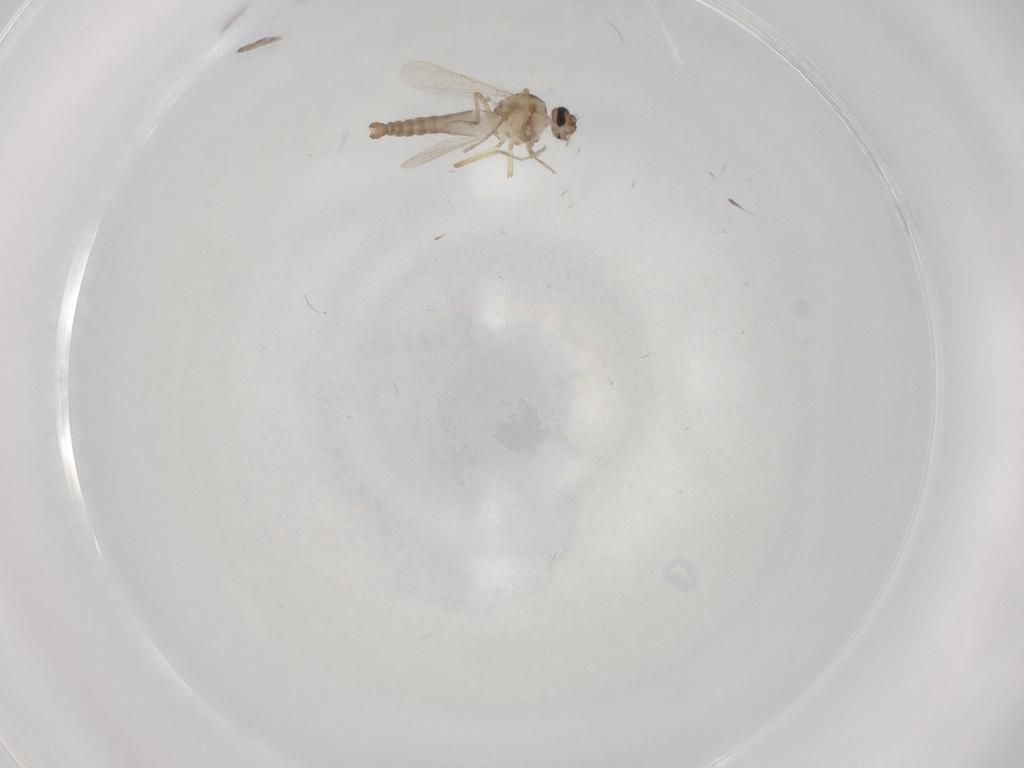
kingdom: Animalia
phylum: Arthropoda
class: Insecta
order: Diptera
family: Ceratopogonidae
